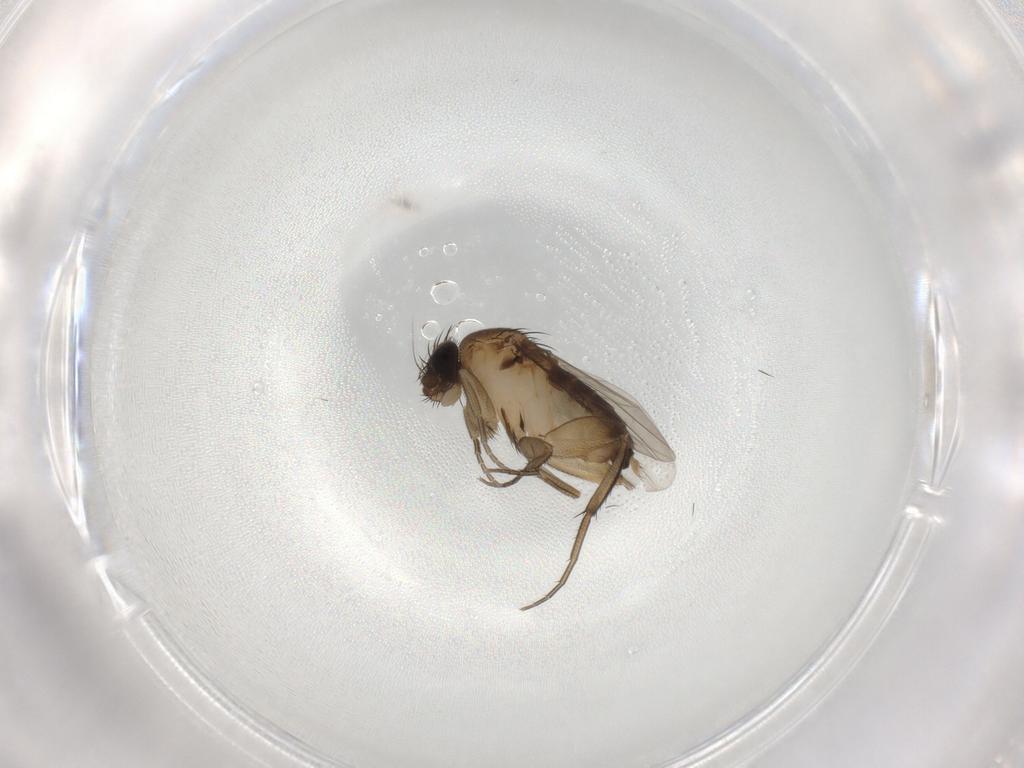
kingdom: Animalia
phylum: Arthropoda
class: Insecta
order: Diptera
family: Phoridae
